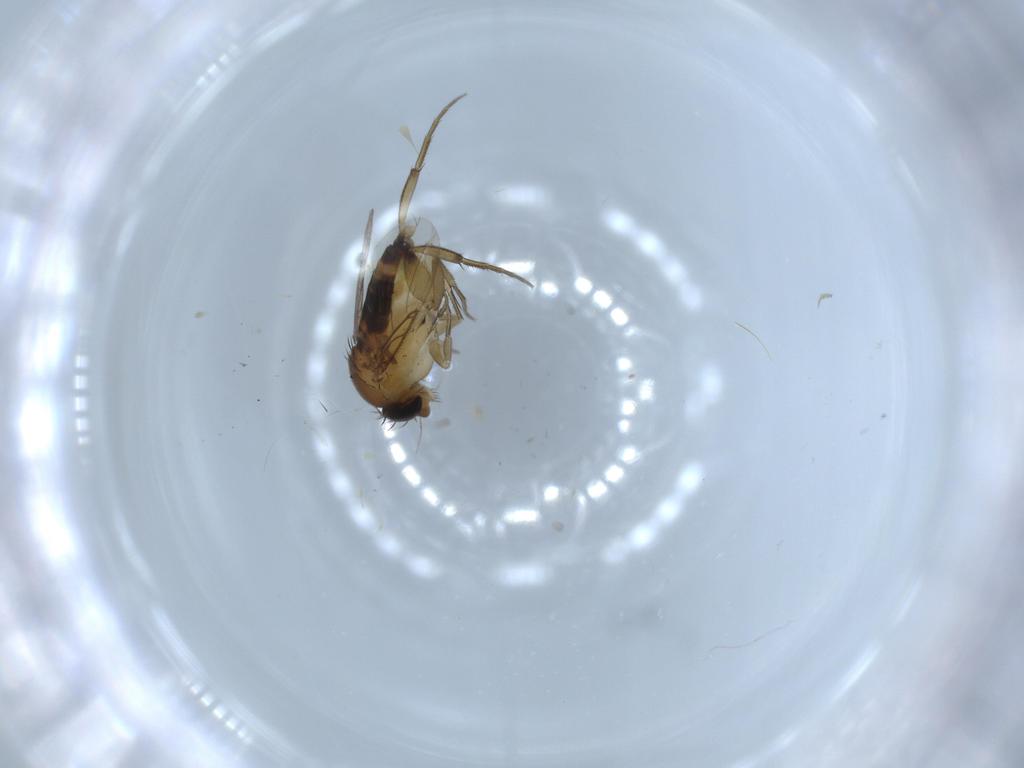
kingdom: Animalia
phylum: Arthropoda
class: Insecta
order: Diptera
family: Phoridae
